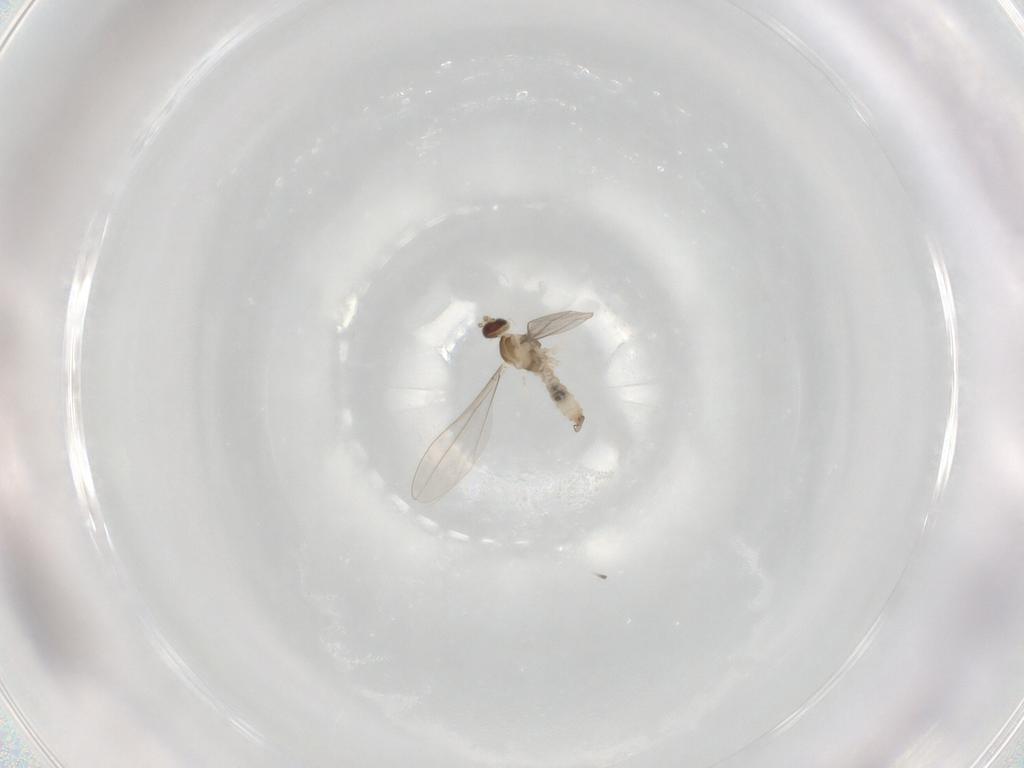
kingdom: Animalia
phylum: Arthropoda
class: Insecta
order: Diptera
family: Cecidomyiidae
